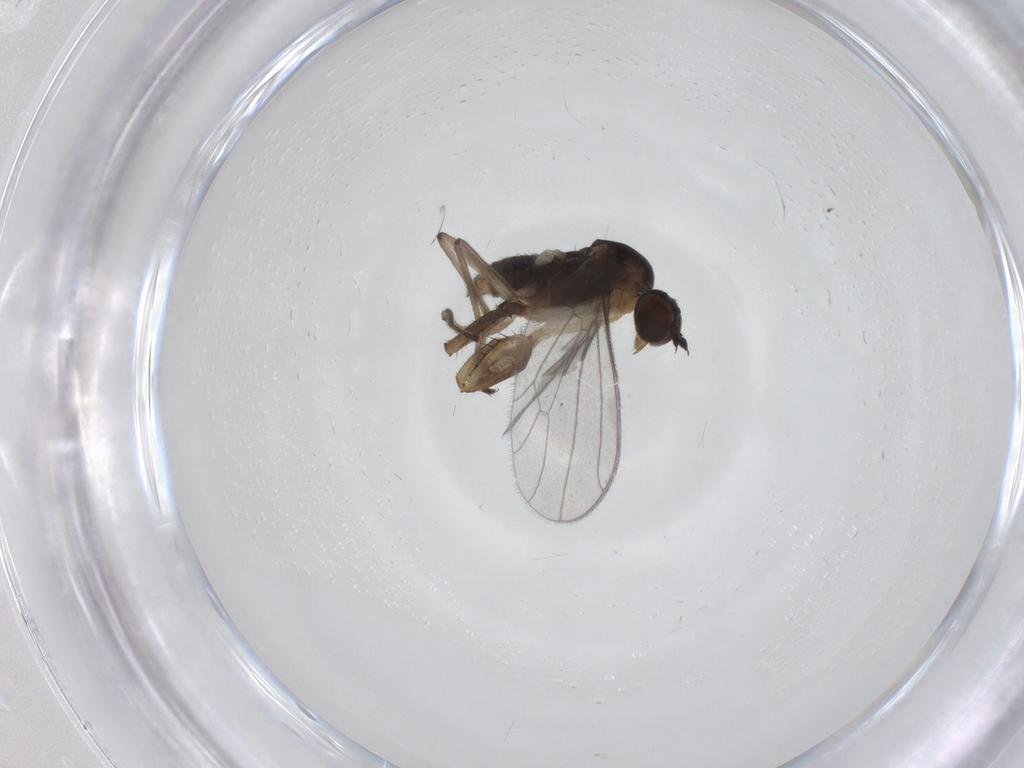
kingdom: Animalia
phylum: Arthropoda
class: Insecta
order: Diptera
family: Empididae
